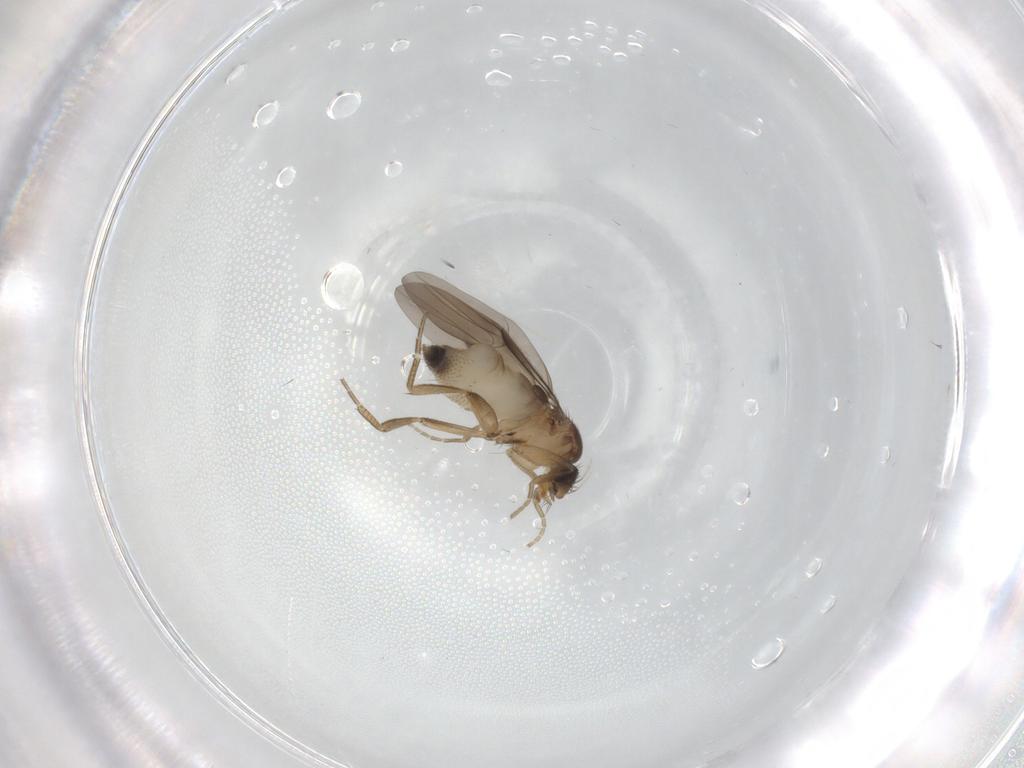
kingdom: Animalia
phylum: Arthropoda
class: Insecta
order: Diptera
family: Phoridae
